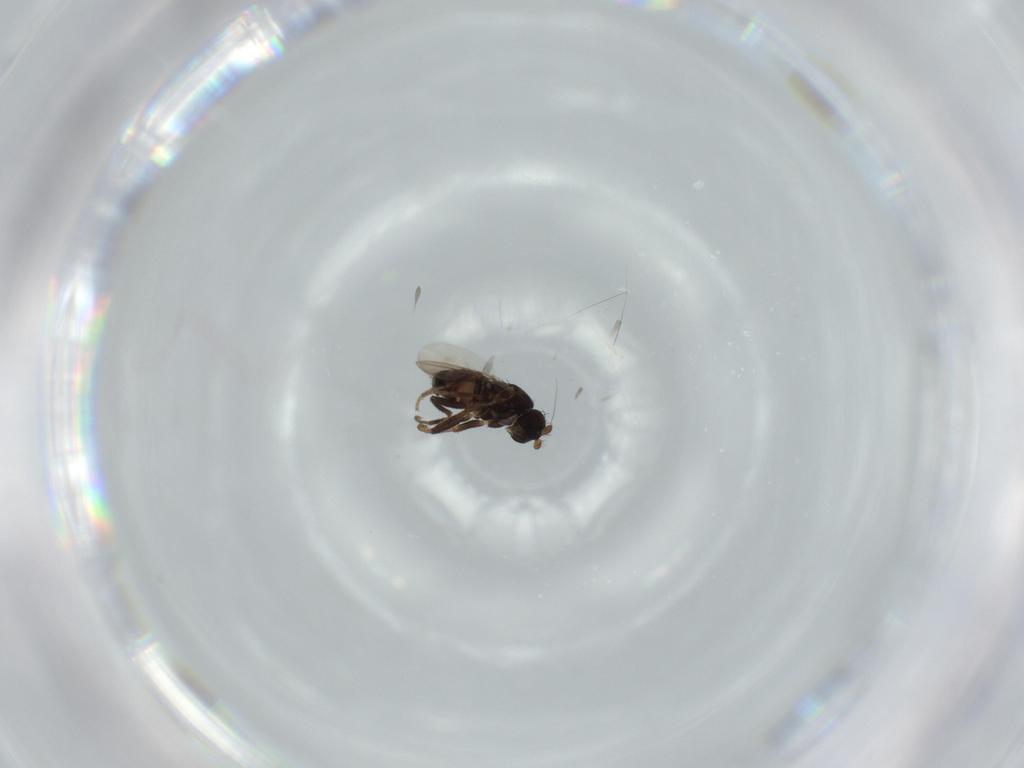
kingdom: Animalia
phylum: Arthropoda
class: Insecta
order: Diptera
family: Sphaeroceridae
